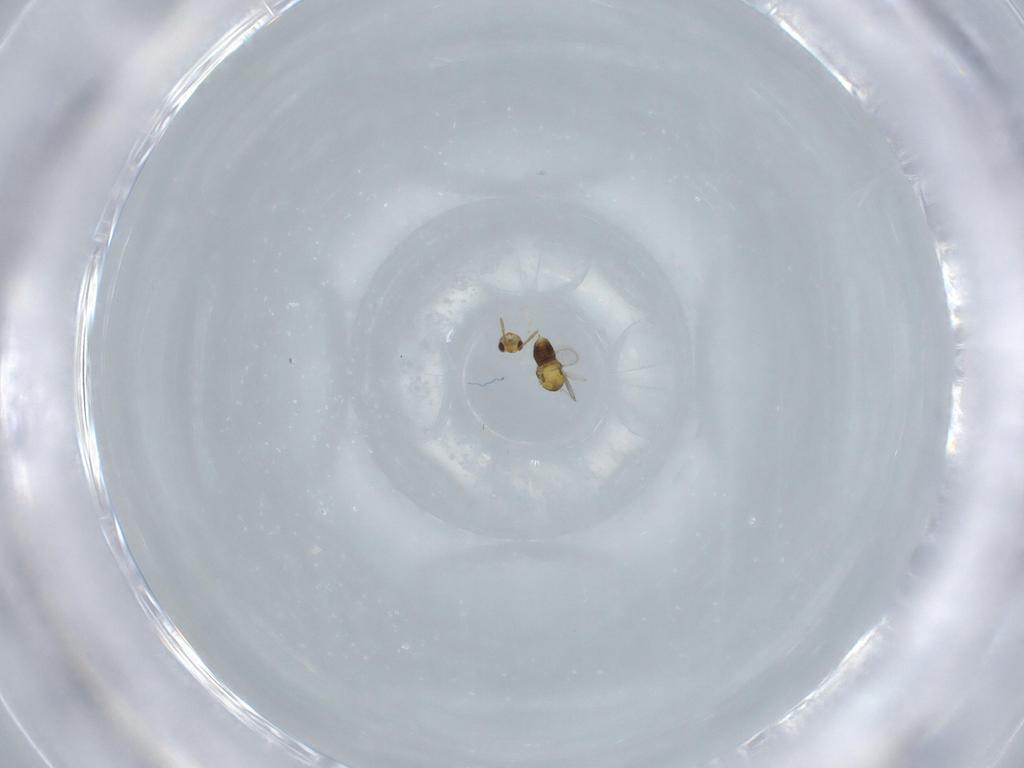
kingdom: Animalia
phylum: Arthropoda
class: Insecta
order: Hymenoptera
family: Aphelinidae
